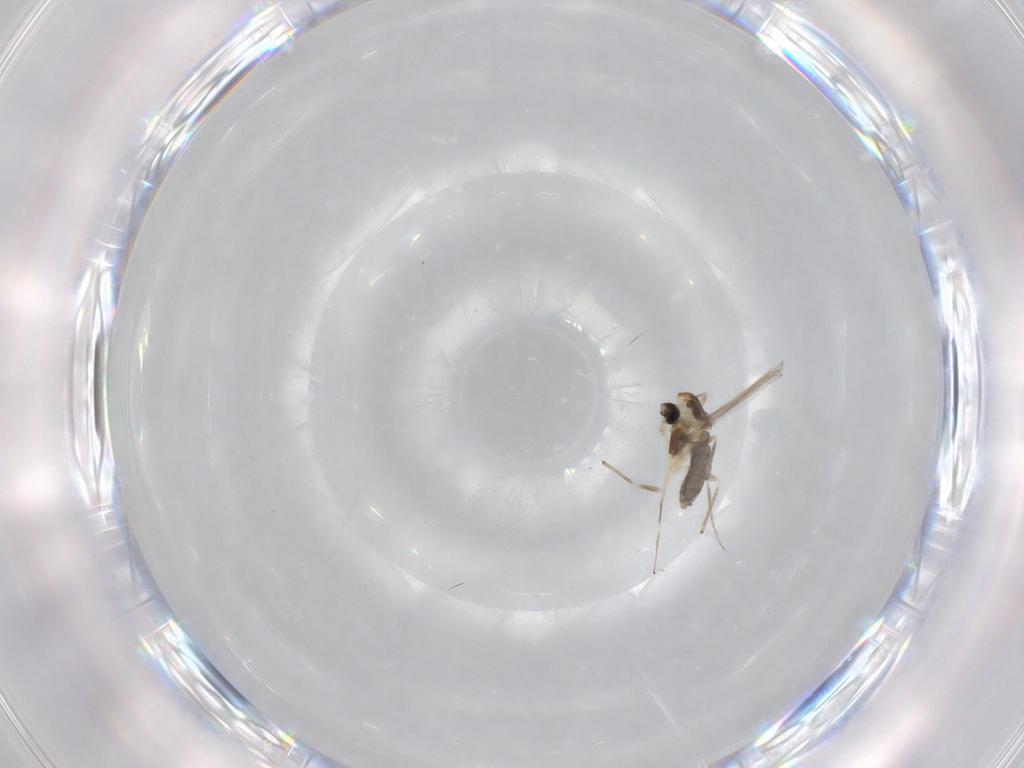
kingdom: Animalia
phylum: Arthropoda
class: Insecta
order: Diptera
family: Chironomidae
